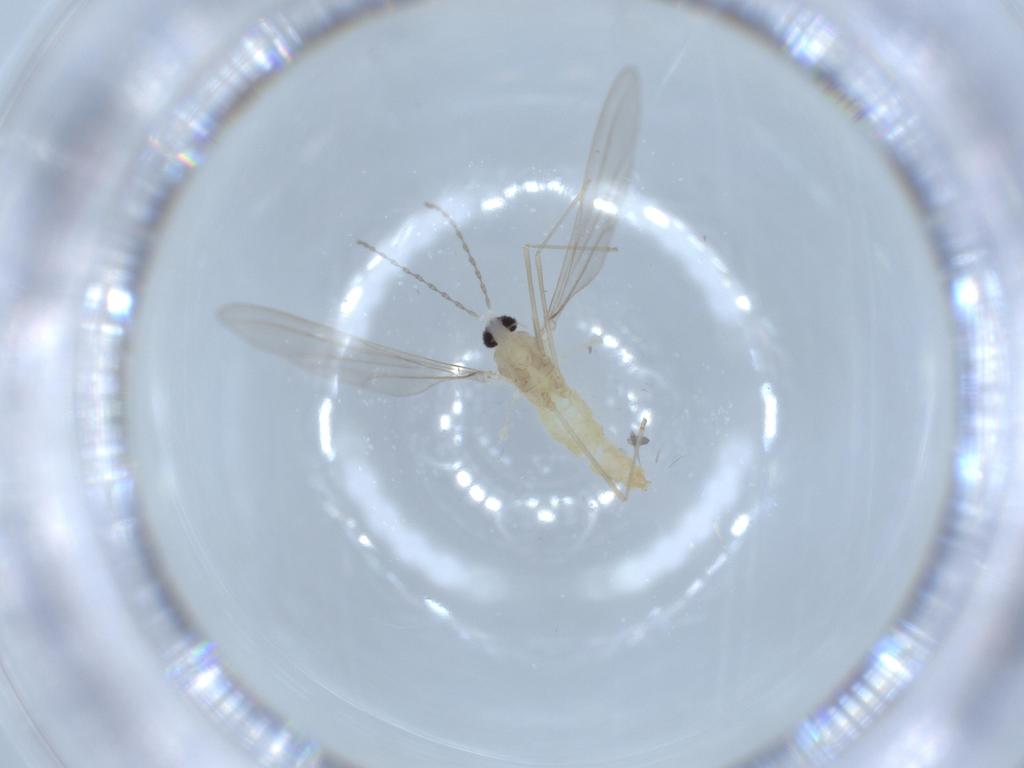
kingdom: Animalia
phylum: Arthropoda
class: Insecta
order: Diptera
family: Cecidomyiidae
